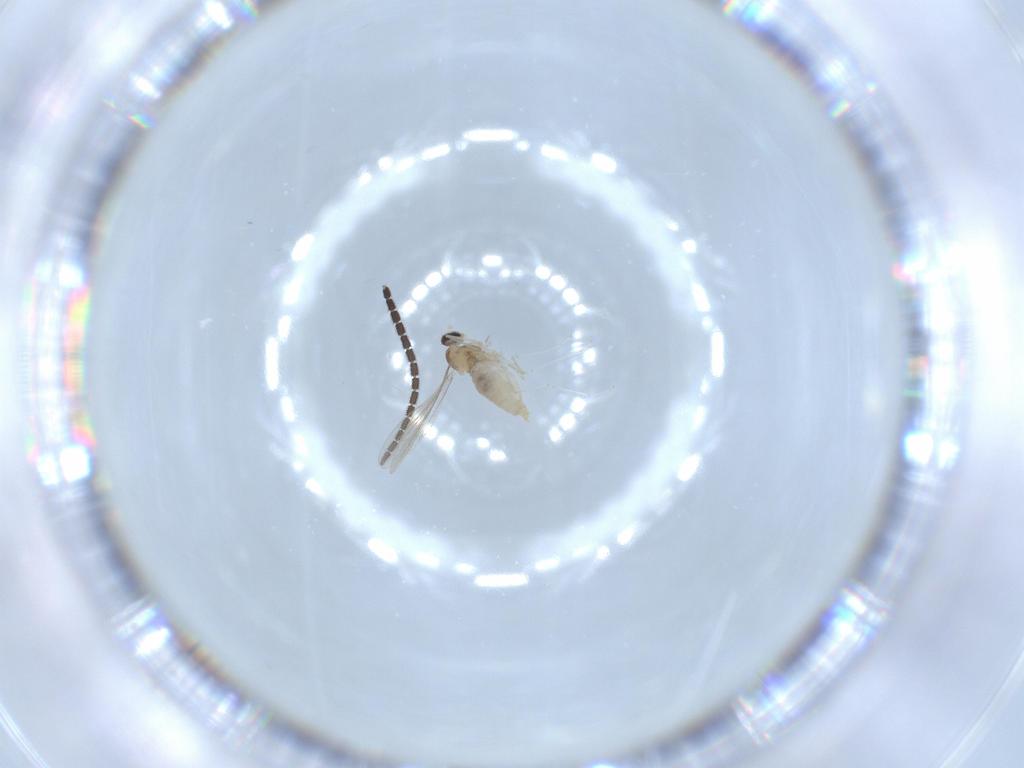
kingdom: Animalia
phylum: Arthropoda
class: Insecta
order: Diptera
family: Cecidomyiidae
